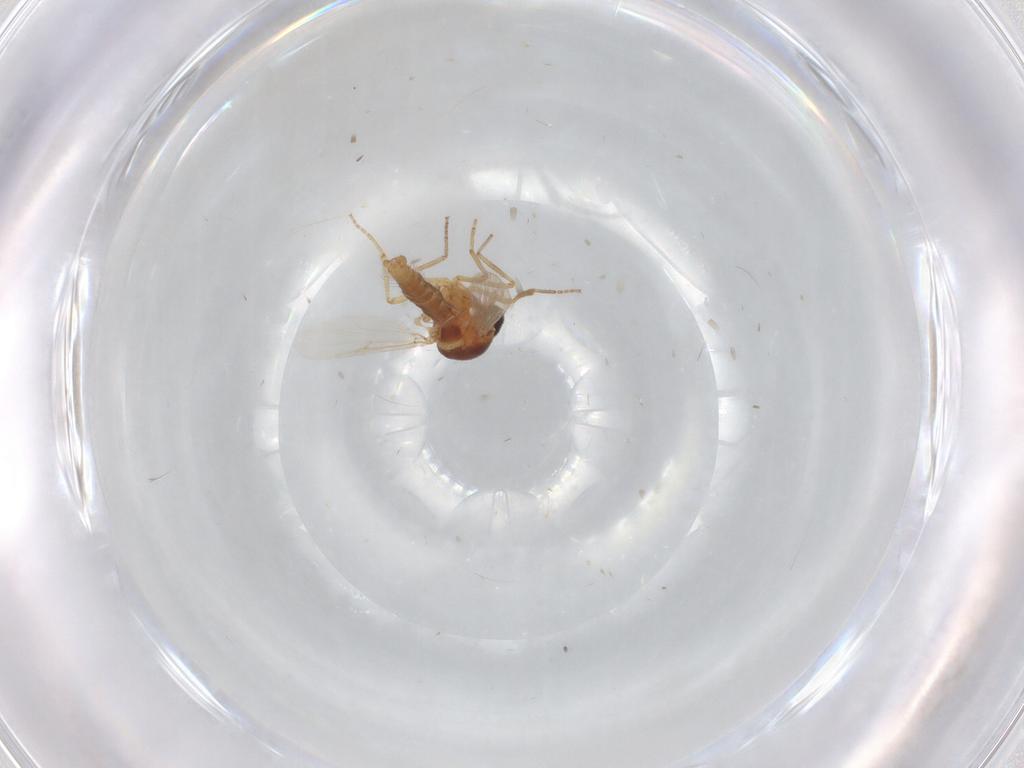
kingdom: Animalia
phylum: Arthropoda
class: Insecta
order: Diptera
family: Ceratopogonidae
